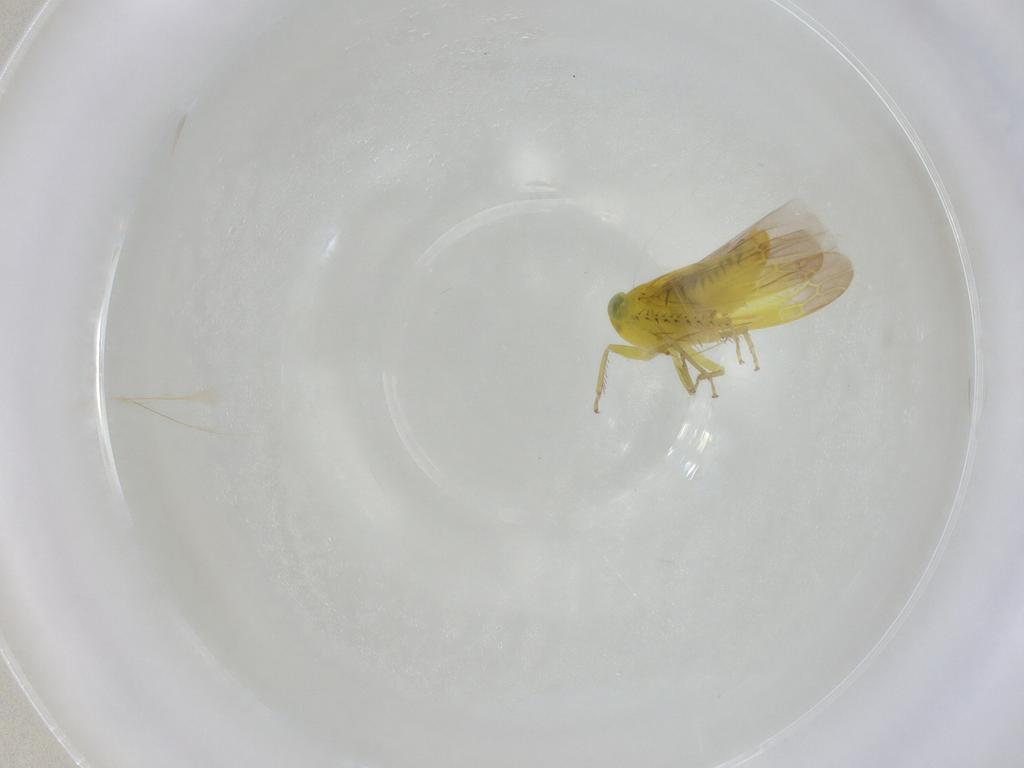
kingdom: Animalia
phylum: Arthropoda
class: Insecta
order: Hemiptera
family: Cicadellidae
